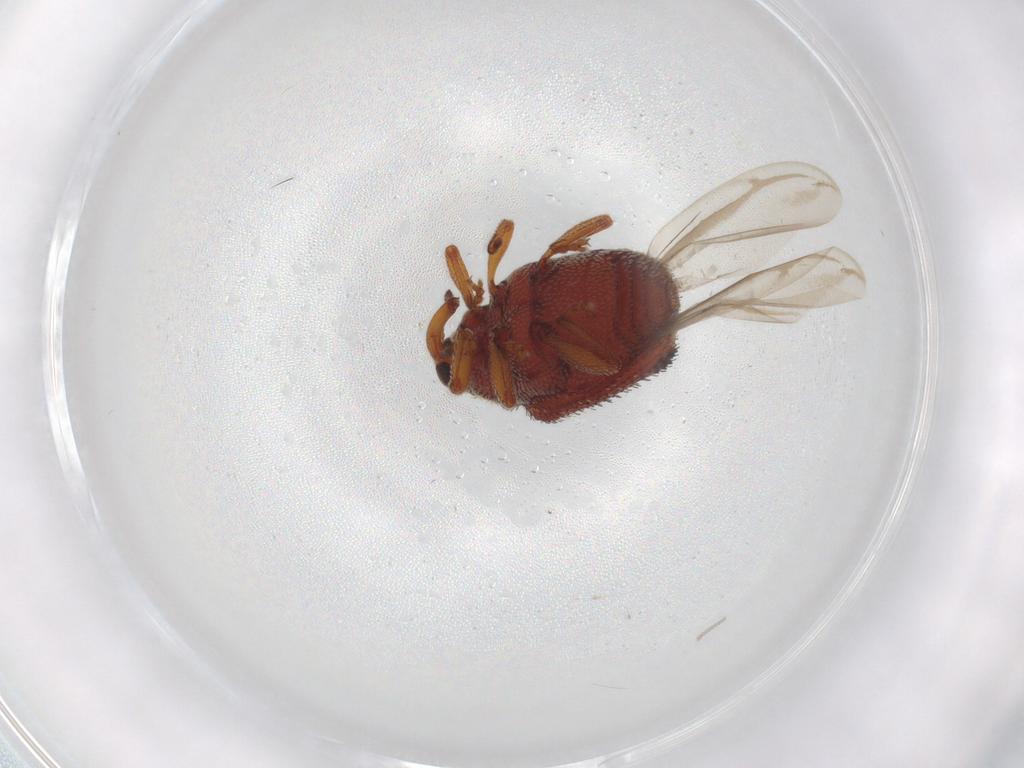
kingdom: Animalia
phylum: Arthropoda
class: Insecta
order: Coleoptera
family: Curculionidae
